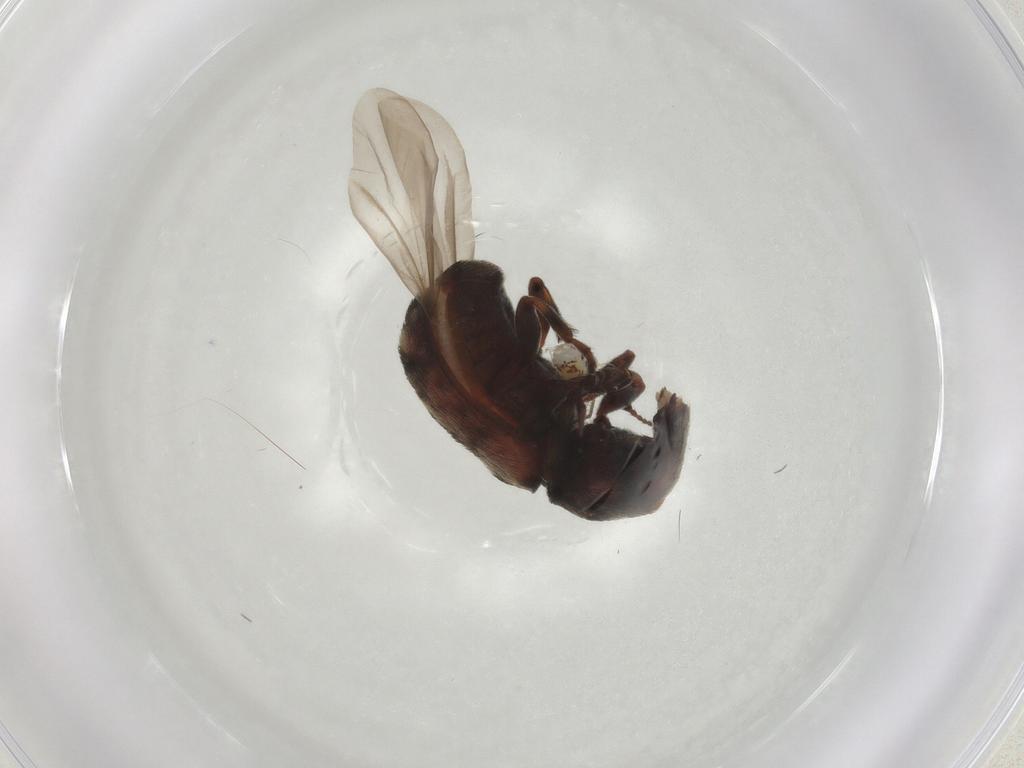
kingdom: Animalia
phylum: Arthropoda
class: Insecta
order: Coleoptera
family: Anthribidae
